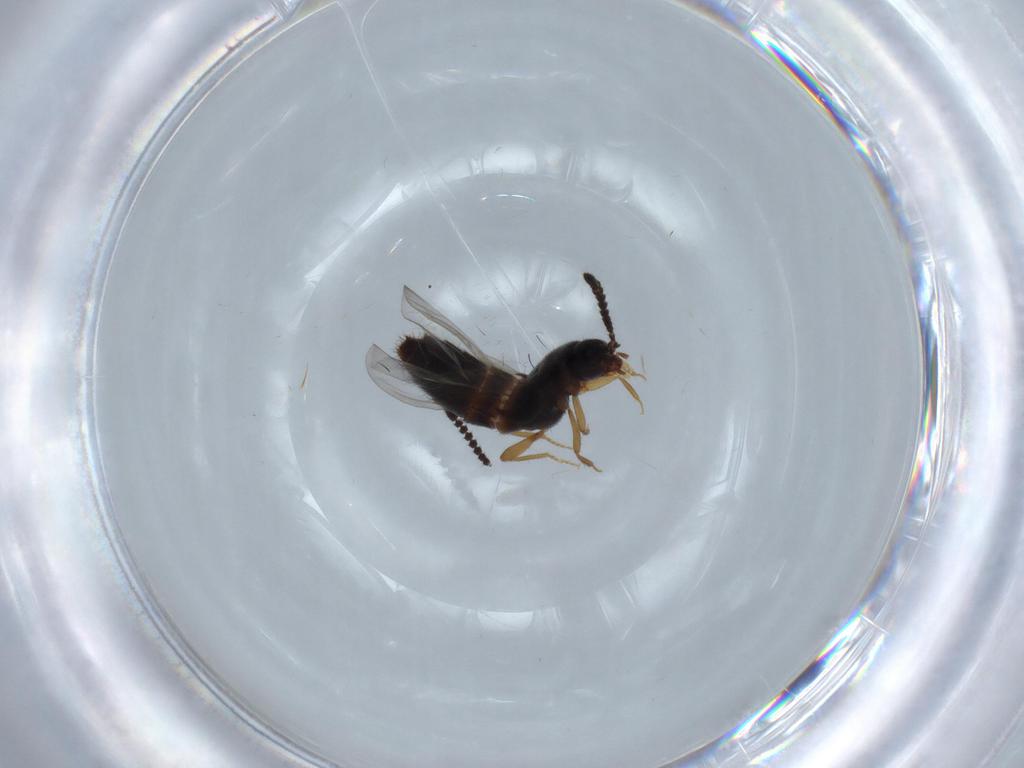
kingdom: Animalia
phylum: Arthropoda
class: Insecta
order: Coleoptera
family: Staphylinidae
